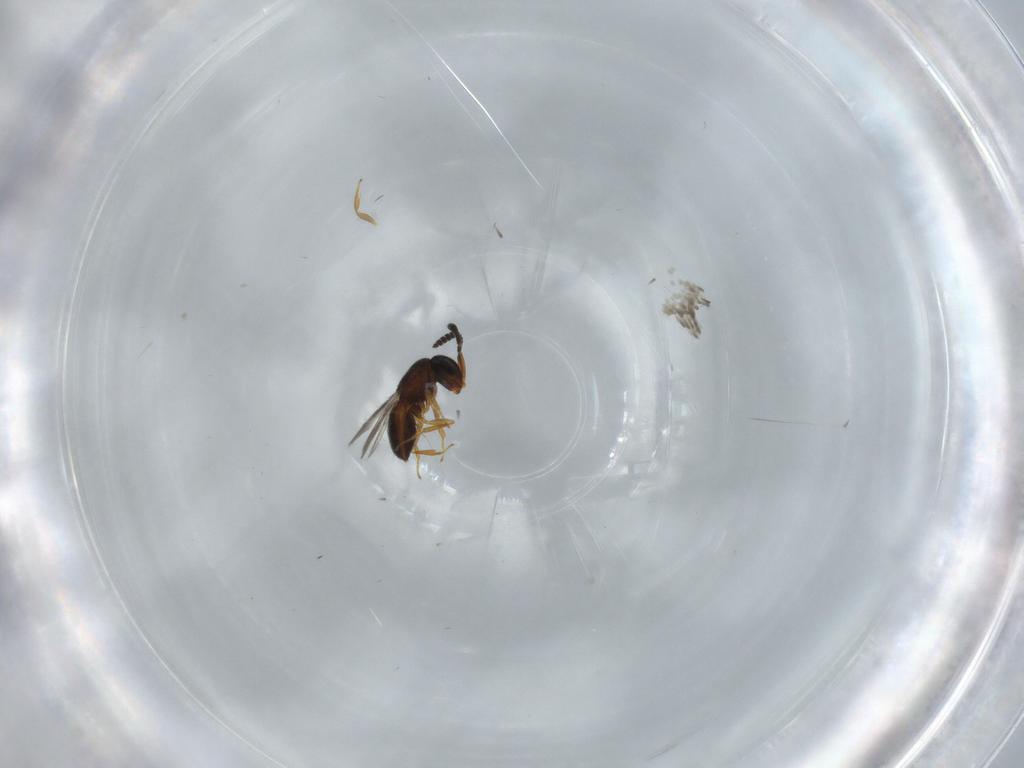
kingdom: Animalia
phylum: Arthropoda
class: Insecta
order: Hymenoptera
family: Scelionidae
